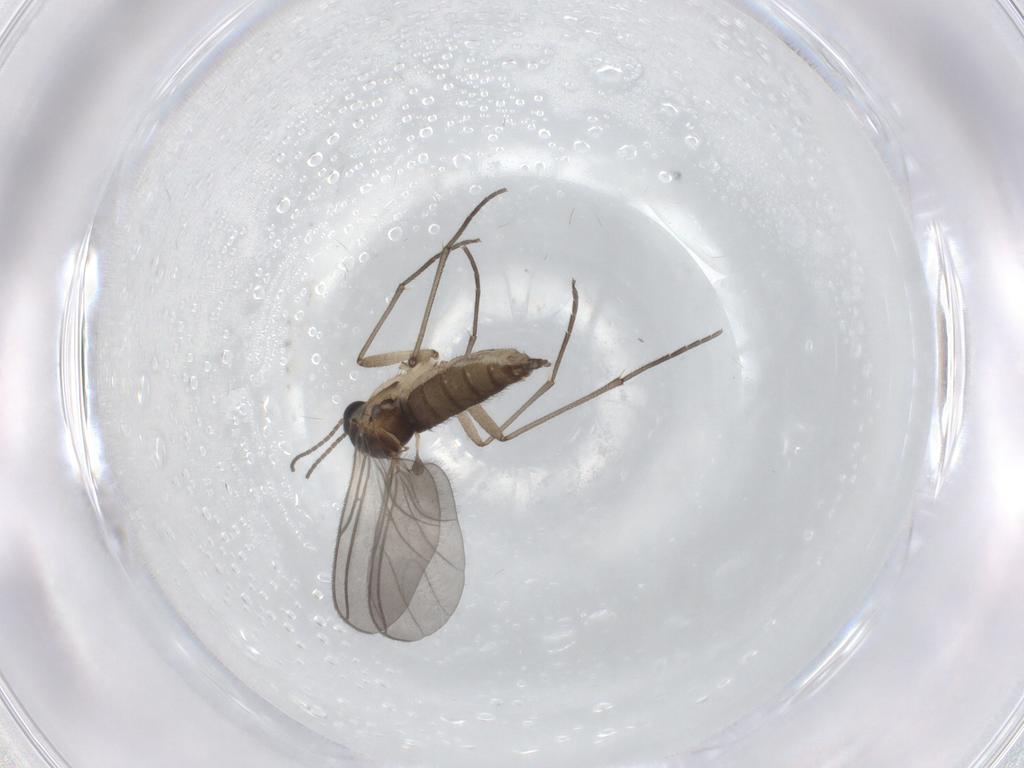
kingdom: Animalia
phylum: Arthropoda
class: Insecta
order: Diptera
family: Sciaridae
